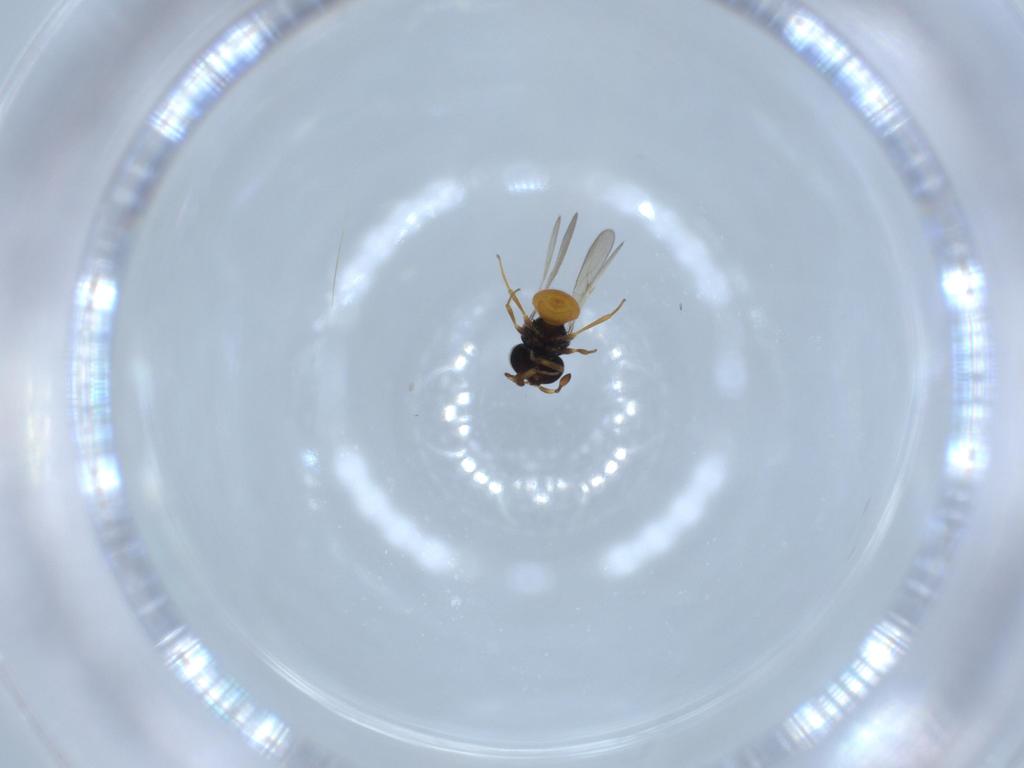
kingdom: Animalia
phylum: Arthropoda
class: Insecta
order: Hymenoptera
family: Scelionidae
